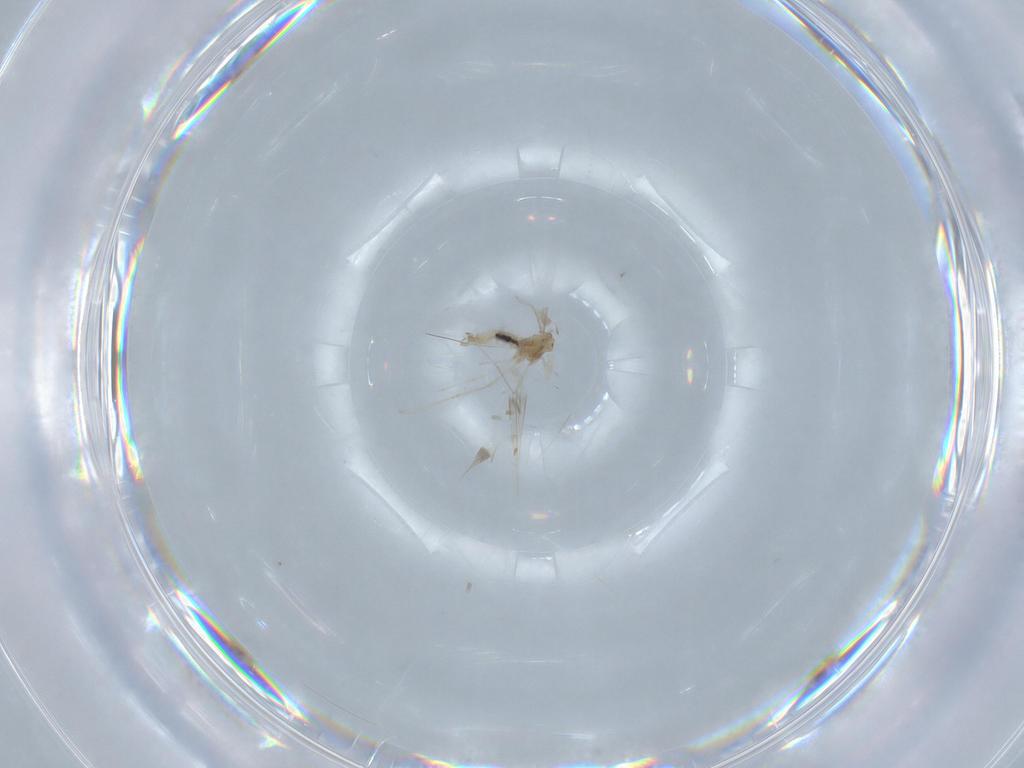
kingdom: Animalia
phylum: Arthropoda
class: Insecta
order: Diptera
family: Cecidomyiidae
